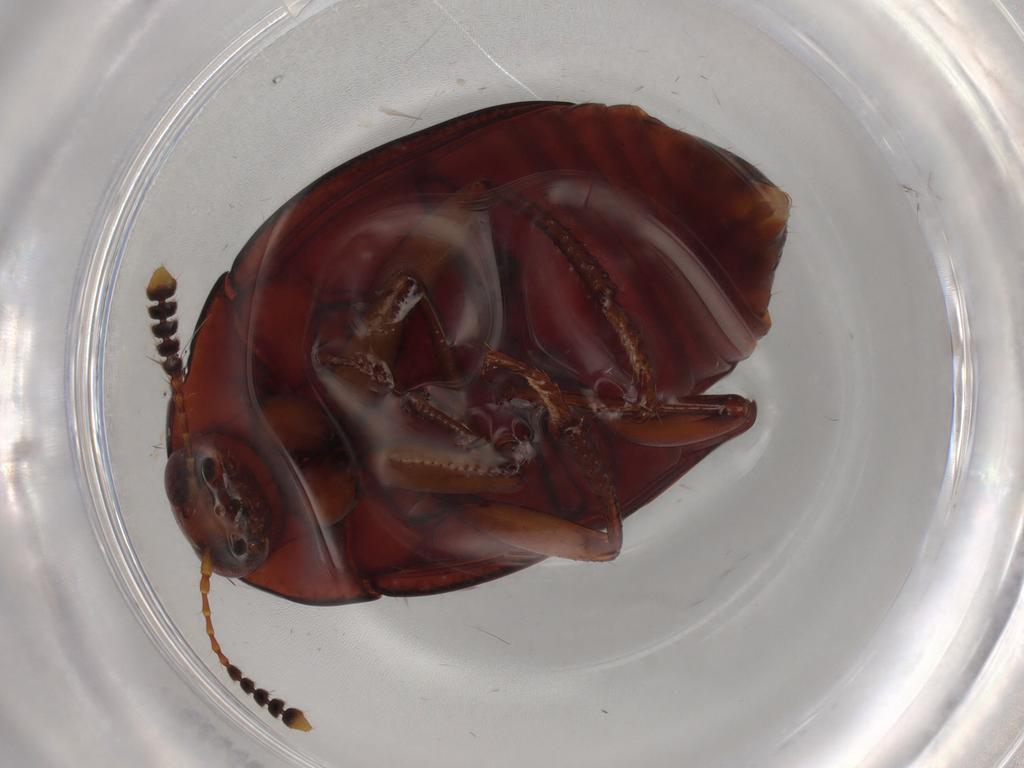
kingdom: Animalia
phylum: Arthropoda
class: Insecta
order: Coleoptera
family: Staphylinidae
